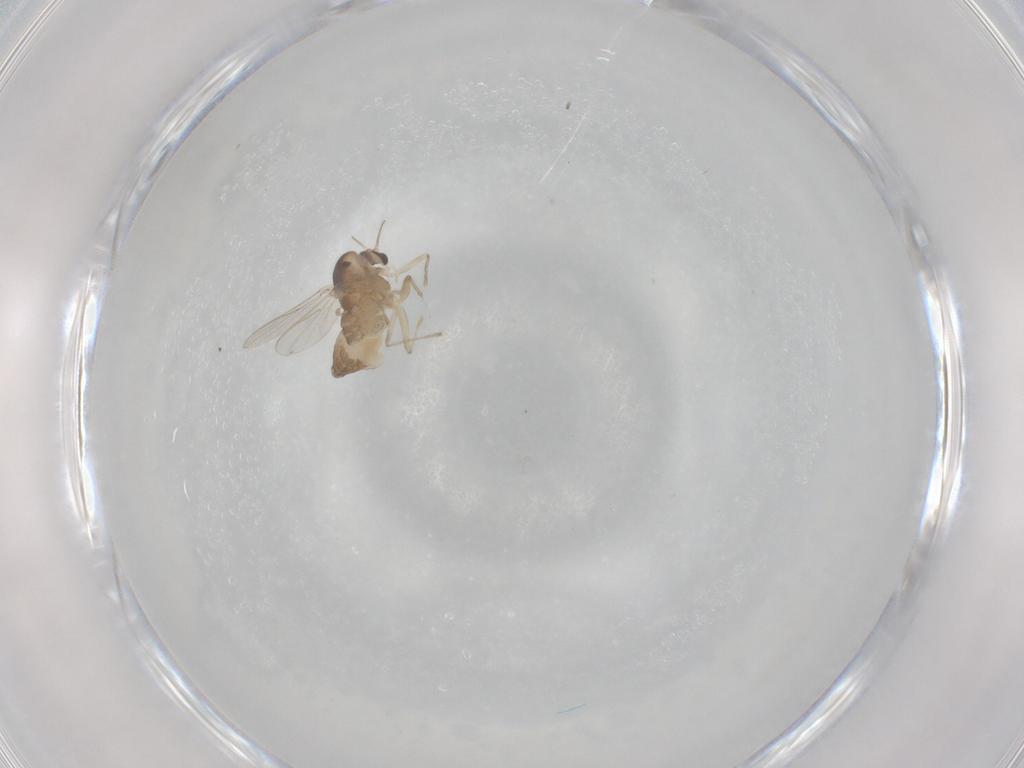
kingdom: Animalia
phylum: Arthropoda
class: Insecta
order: Diptera
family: Chironomidae
